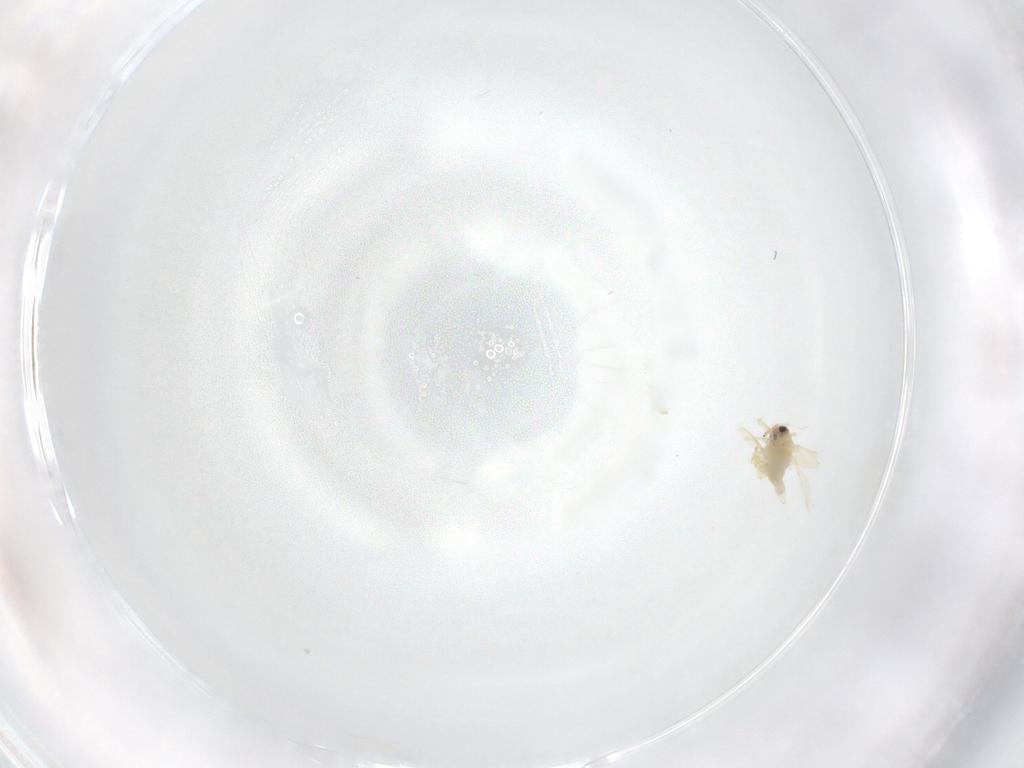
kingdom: Animalia
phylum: Arthropoda
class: Insecta
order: Hemiptera
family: Aleyrodidae
